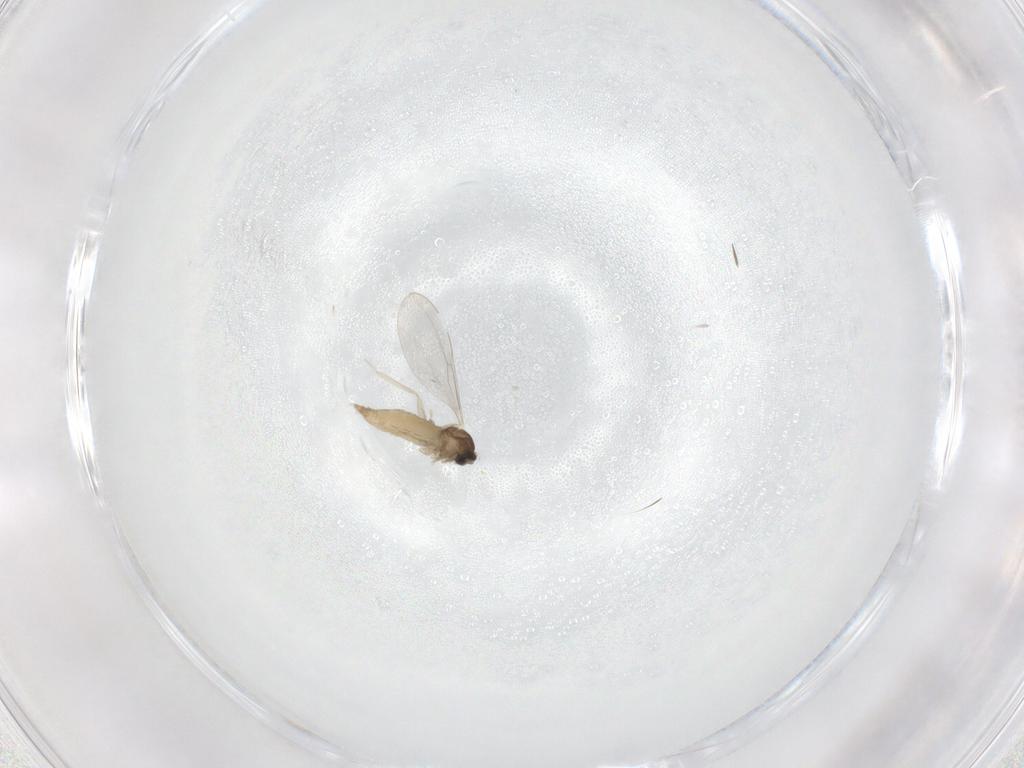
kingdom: Animalia
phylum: Arthropoda
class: Insecta
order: Diptera
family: Cecidomyiidae
